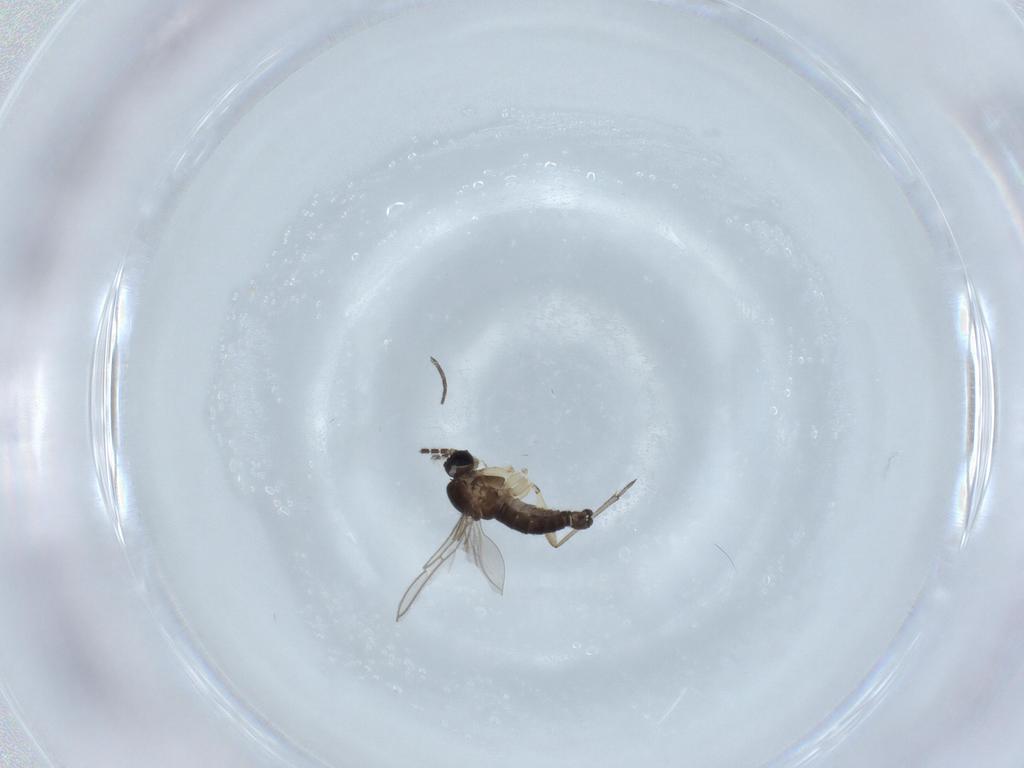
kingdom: Animalia
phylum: Arthropoda
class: Insecta
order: Diptera
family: Sciaridae
